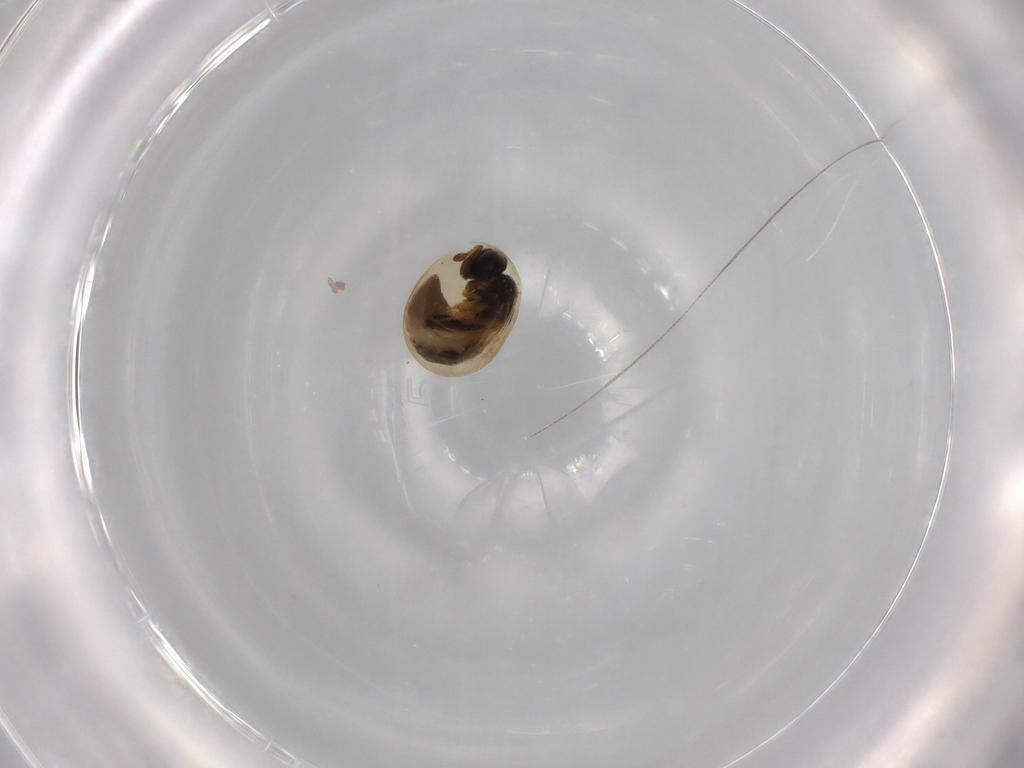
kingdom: Animalia
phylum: Arthropoda
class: Insecta
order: Hymenoptera
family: Scelionidae
